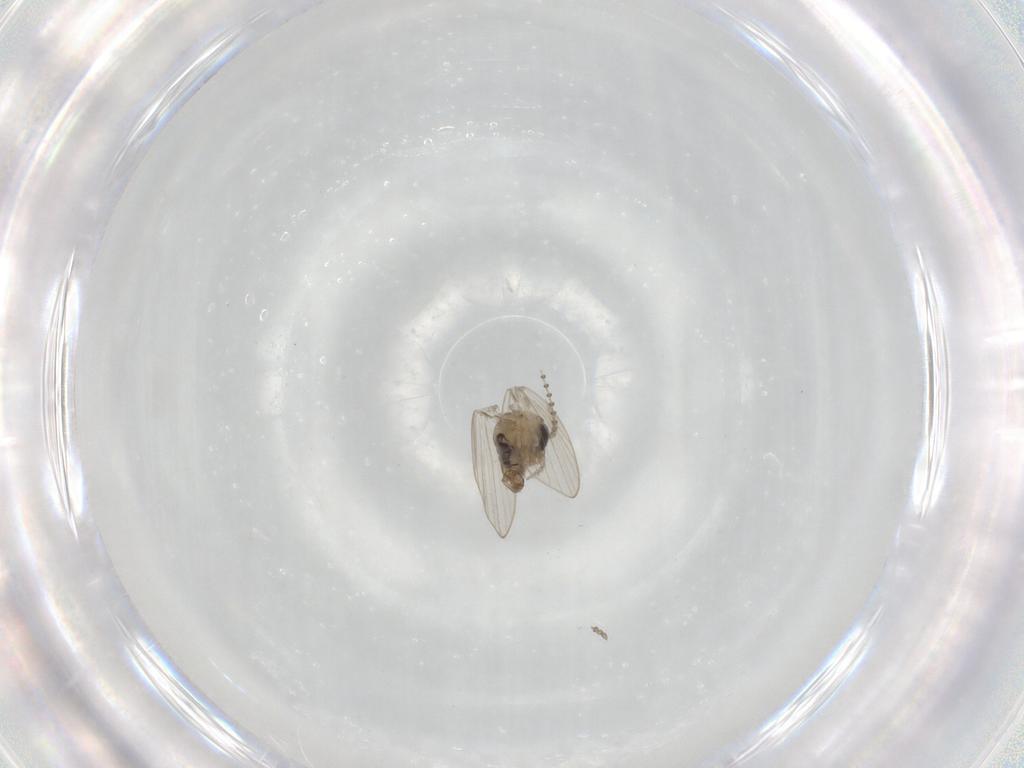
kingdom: Animalia
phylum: Arthropoda
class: Insecta
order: Diptera
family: Psychodidae
